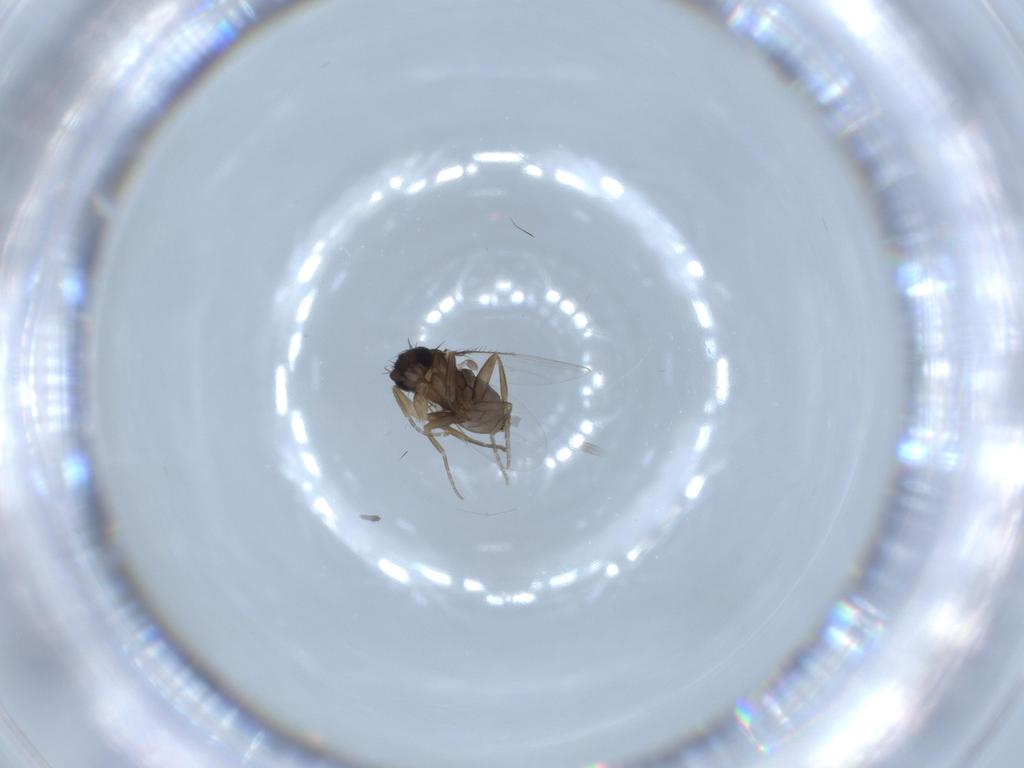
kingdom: Animalia
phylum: Arthropoda
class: Insecta
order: Diptera
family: Phoridae
